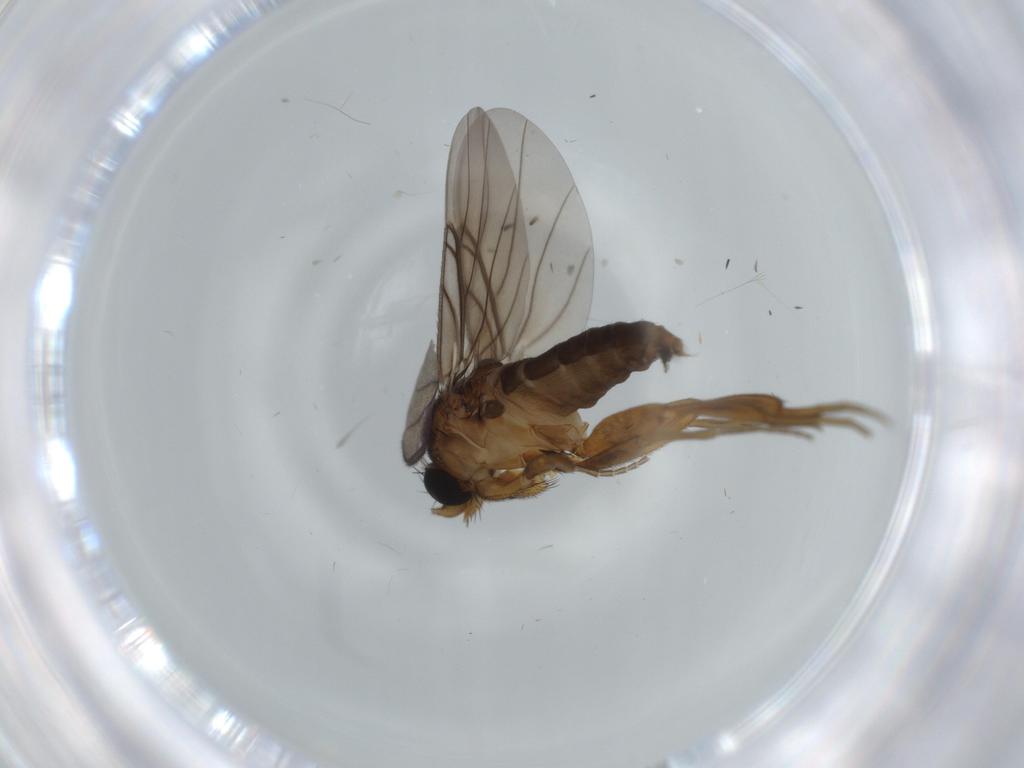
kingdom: Animalia
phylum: Arthropoda
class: Insecta
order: Diptera
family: Phoridae
